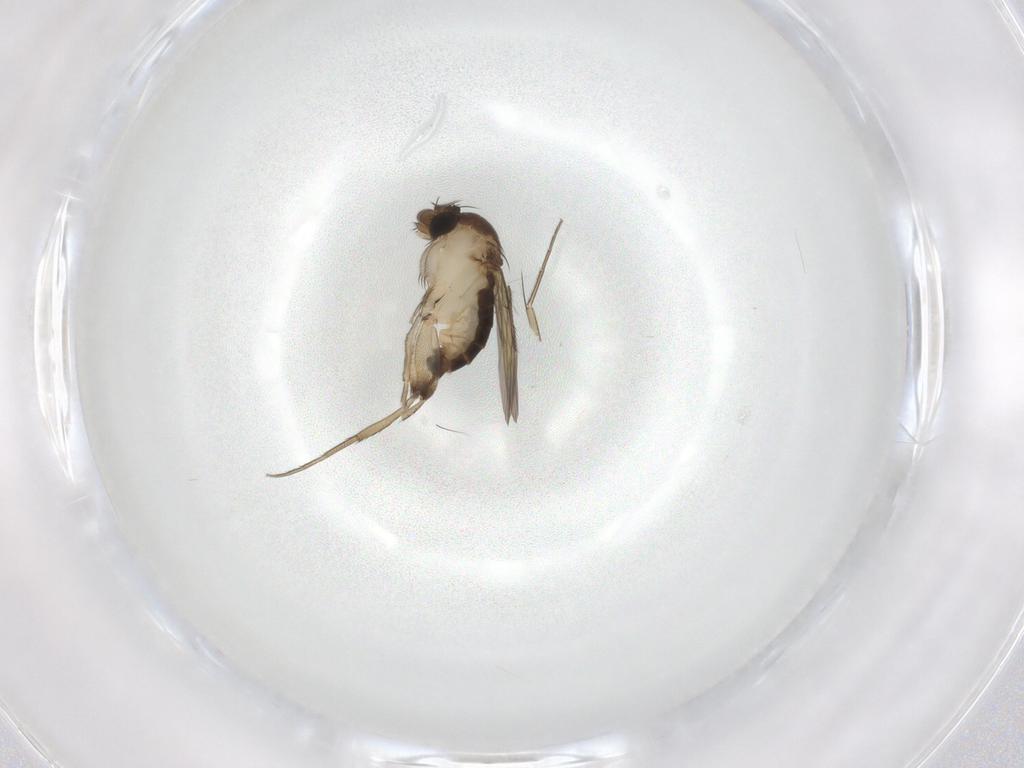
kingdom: Animalia
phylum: Arthropoda
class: Insecta
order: Diptera
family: Phoridae
